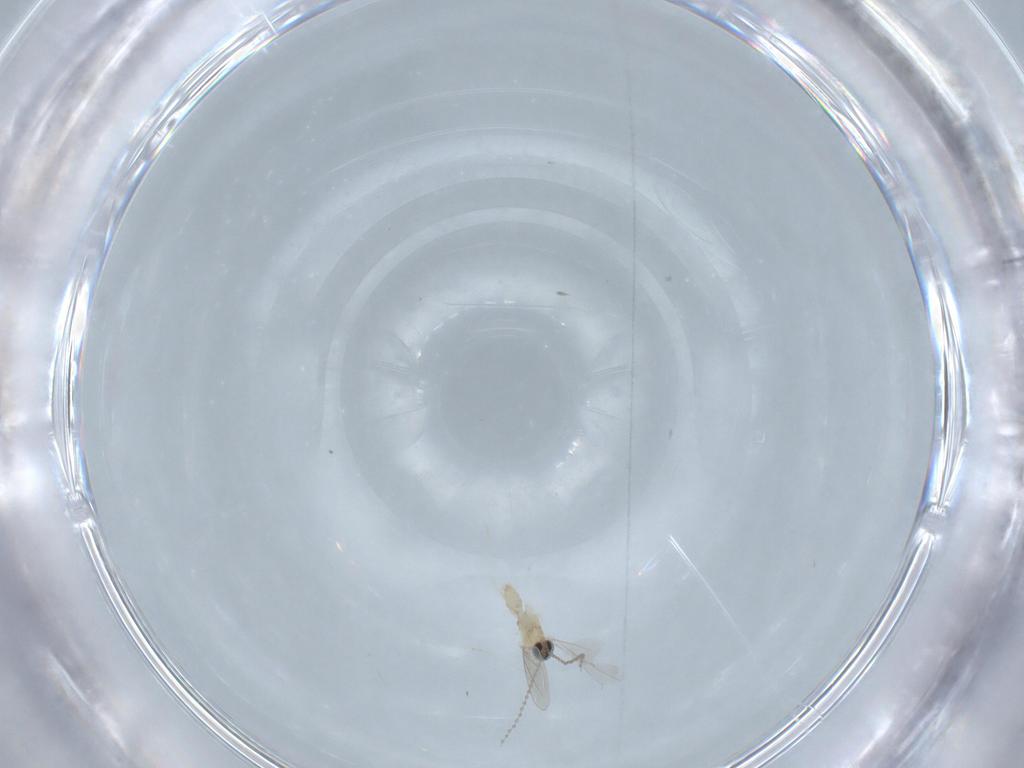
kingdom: Animalia
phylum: Arthropoda
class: Insecta
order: Diptera
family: Cecidomyiidae
